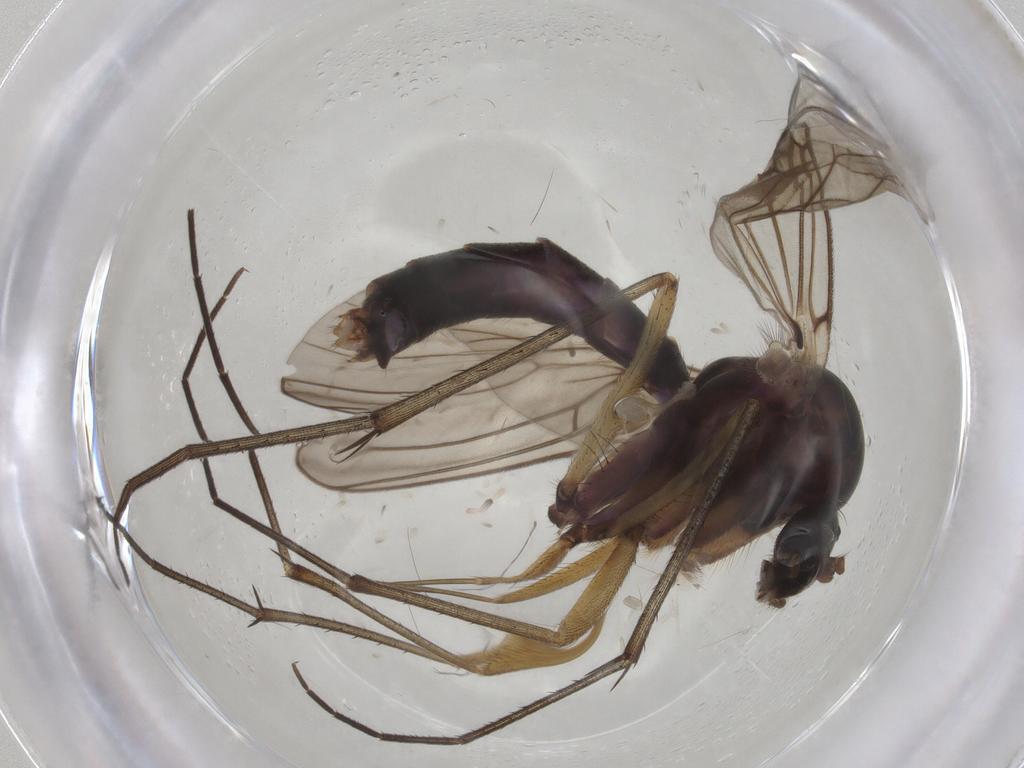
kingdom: Animalia
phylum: Arthropoda
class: Insecta
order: Diptera
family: Mycetophilidae
